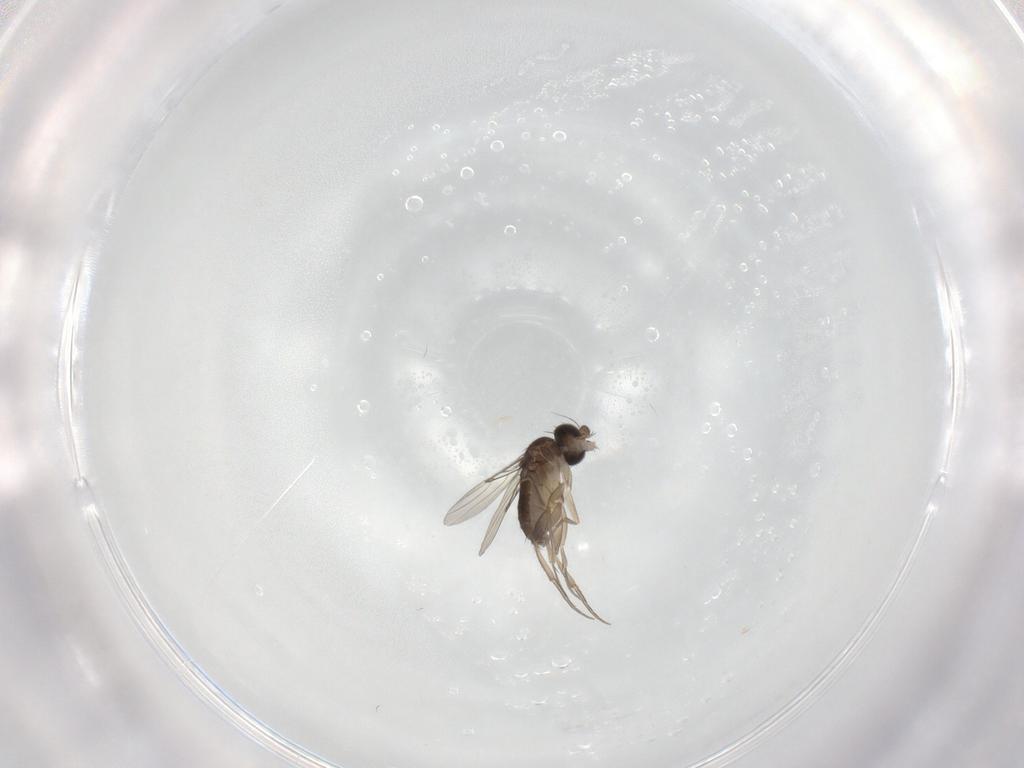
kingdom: Animalia
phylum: Arthropoda
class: Insecta
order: Diptera
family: Phoridae
